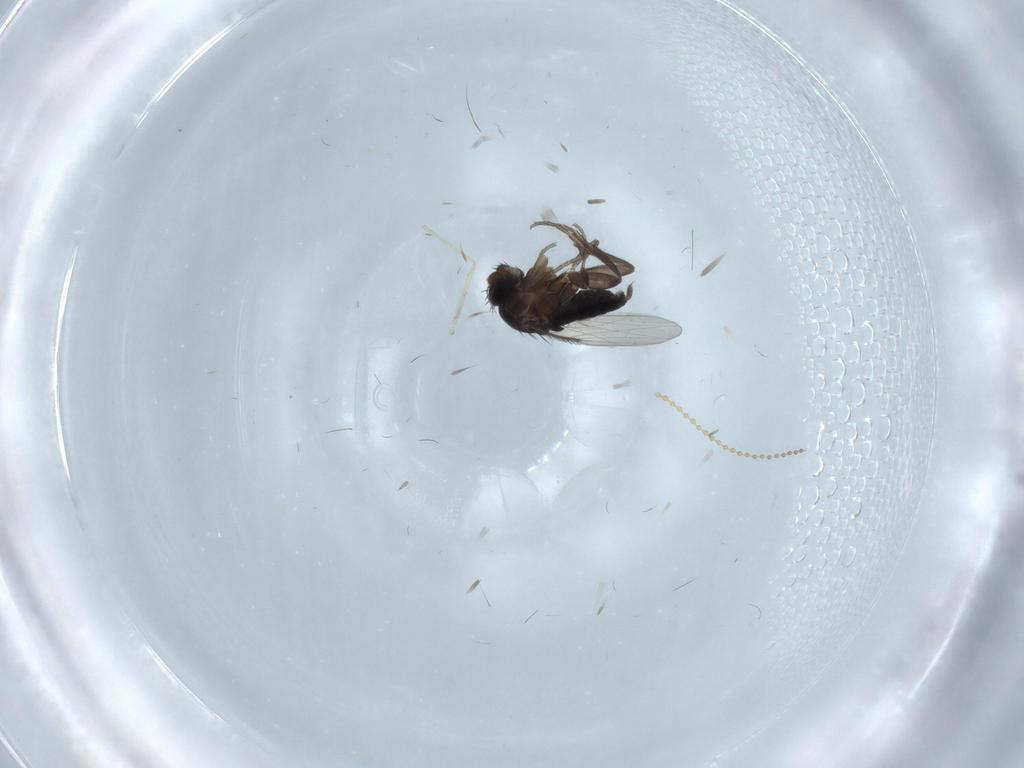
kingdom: Animalia
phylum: Arthropoda
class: Insecta
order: Diptera
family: Phoridae
